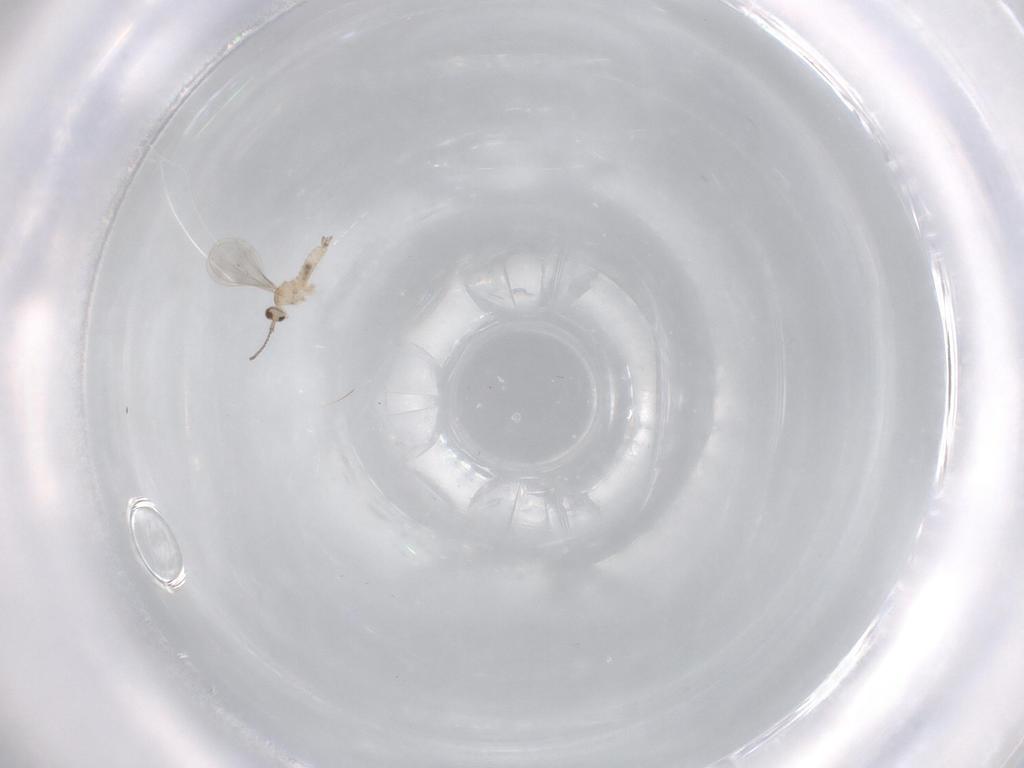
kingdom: Animalia
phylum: Arthropoda
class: Insecta
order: Diptera
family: Cecidomyiidae
